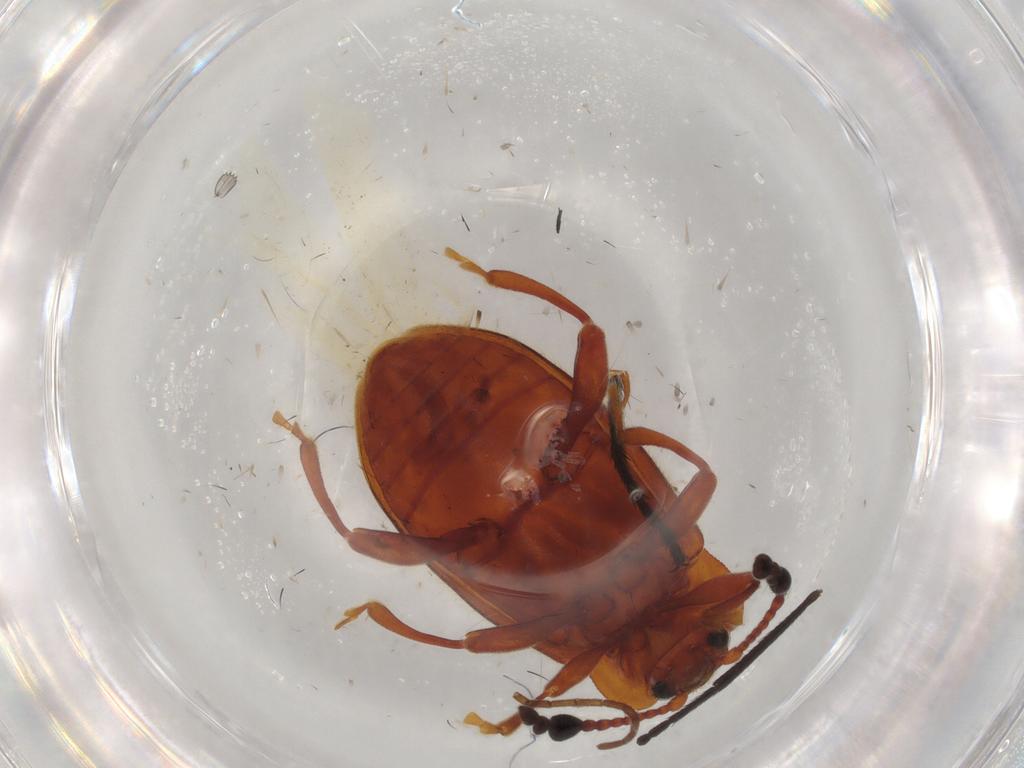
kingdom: Animalia
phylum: Arthropoda
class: Insecta
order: Coleoptera
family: Endomychidae
